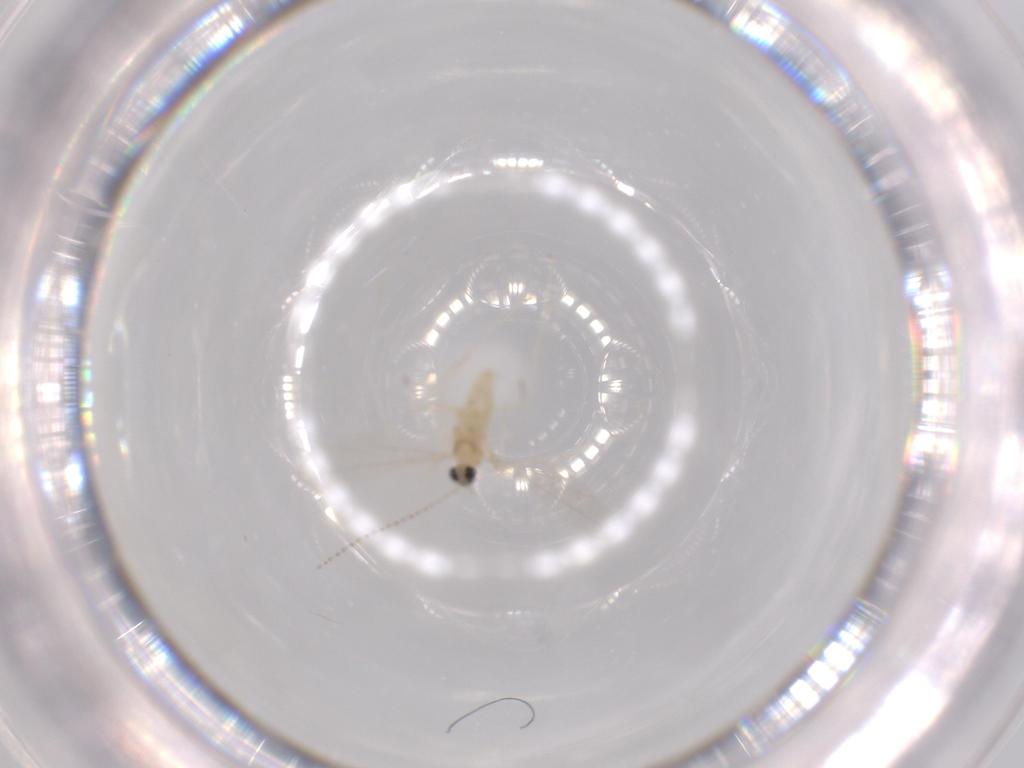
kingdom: Animalia
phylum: Arthropoda
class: Insecta
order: Diptera
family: Cecidomyiidae
